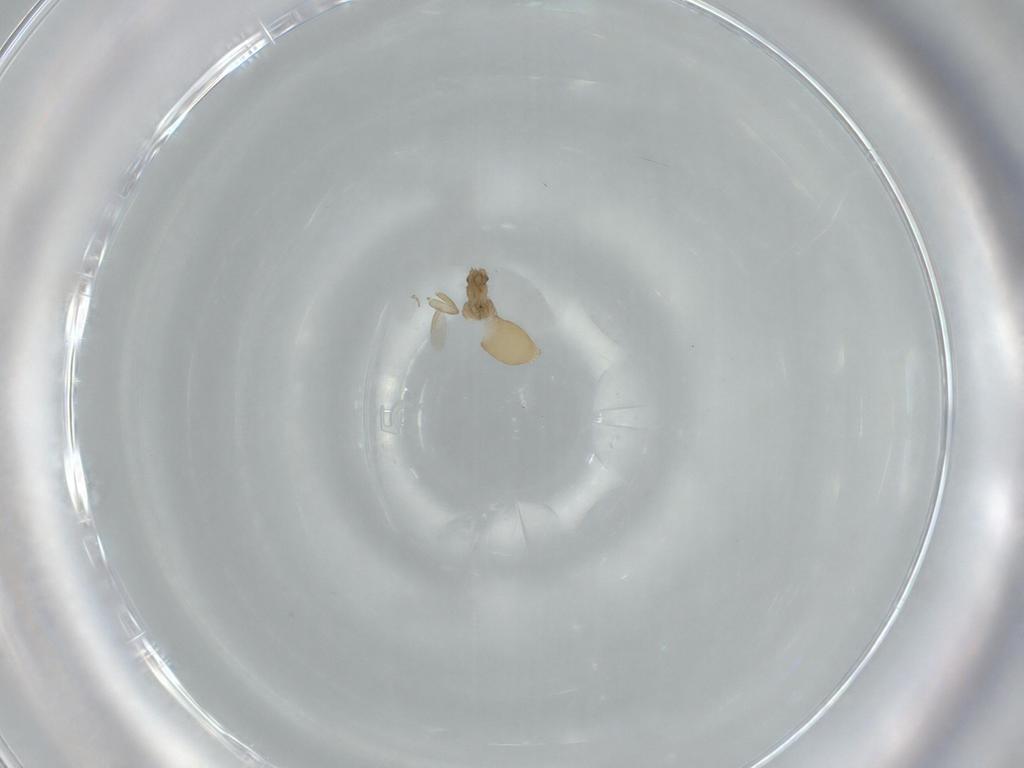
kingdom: Animalia
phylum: Arthropoda
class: Insecta
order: Diptera
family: Phoridae
